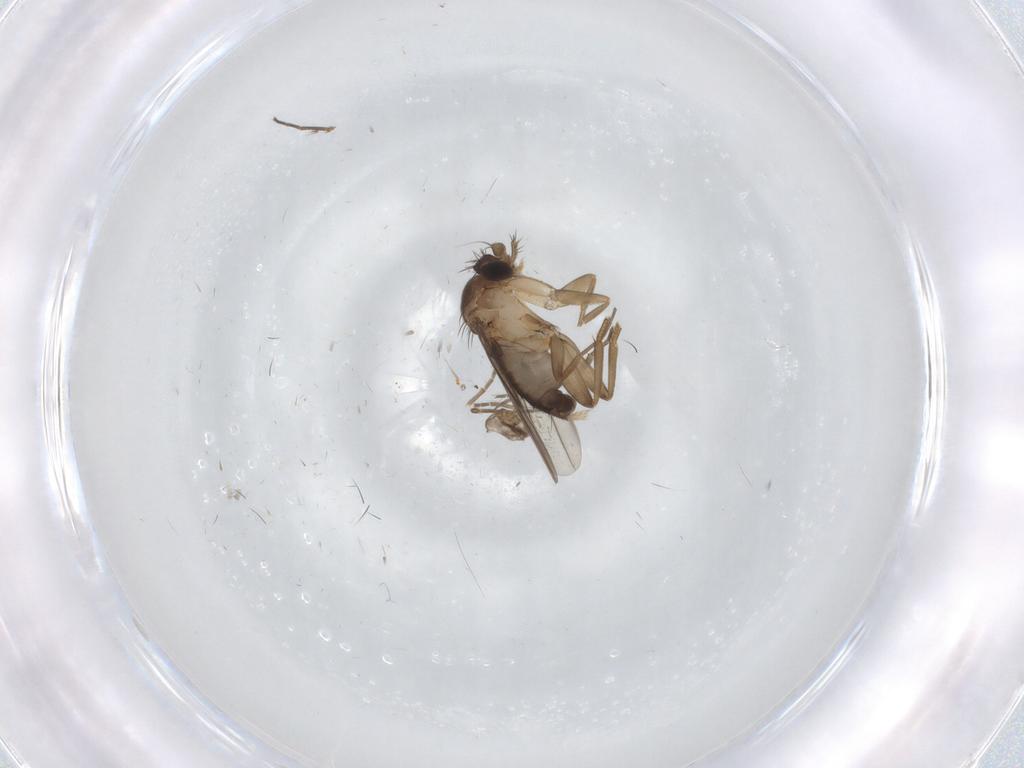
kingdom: Animalia
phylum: Arthropoda
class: Insecta
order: Diptera
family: Phoridae
